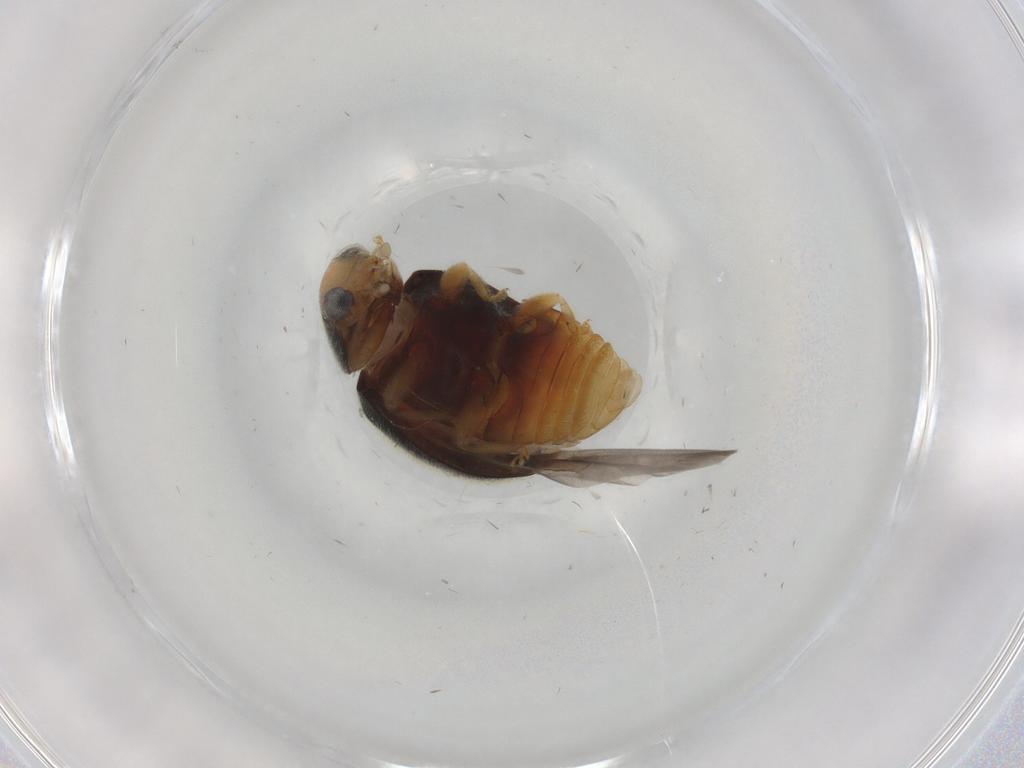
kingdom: Animalia
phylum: Arthropoda
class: Insecta
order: Coleoptera
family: Coccinellidae
